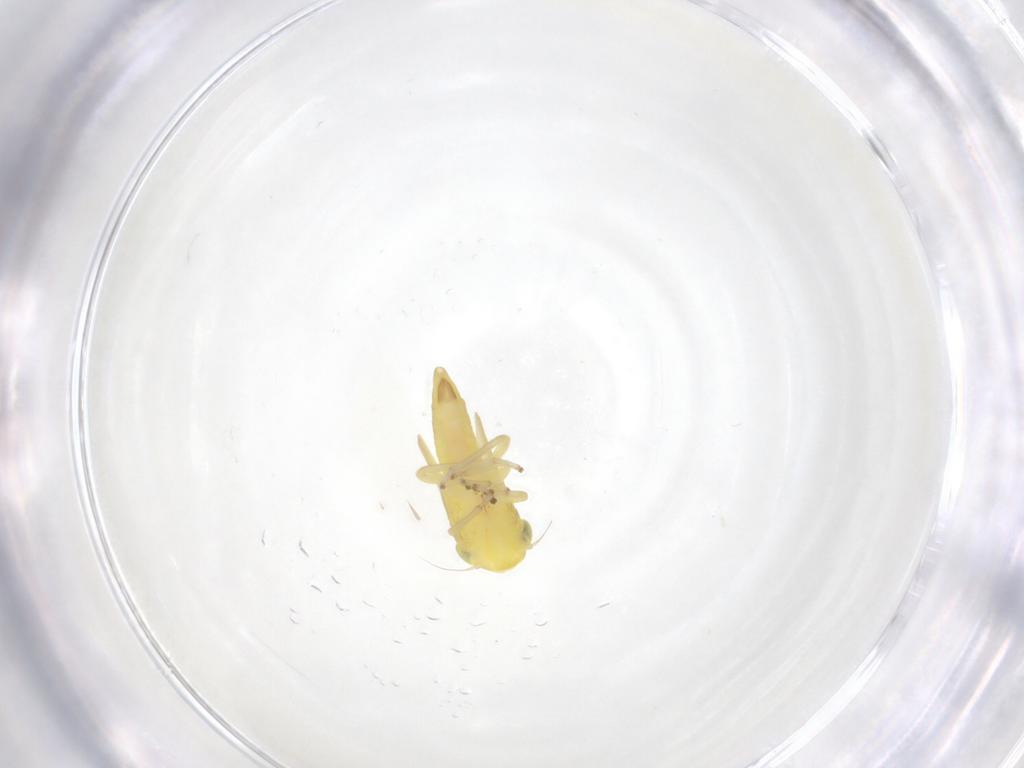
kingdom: Animalia
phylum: Arthropoda
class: Insecta
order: Hemiptera
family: Cicadellidae
